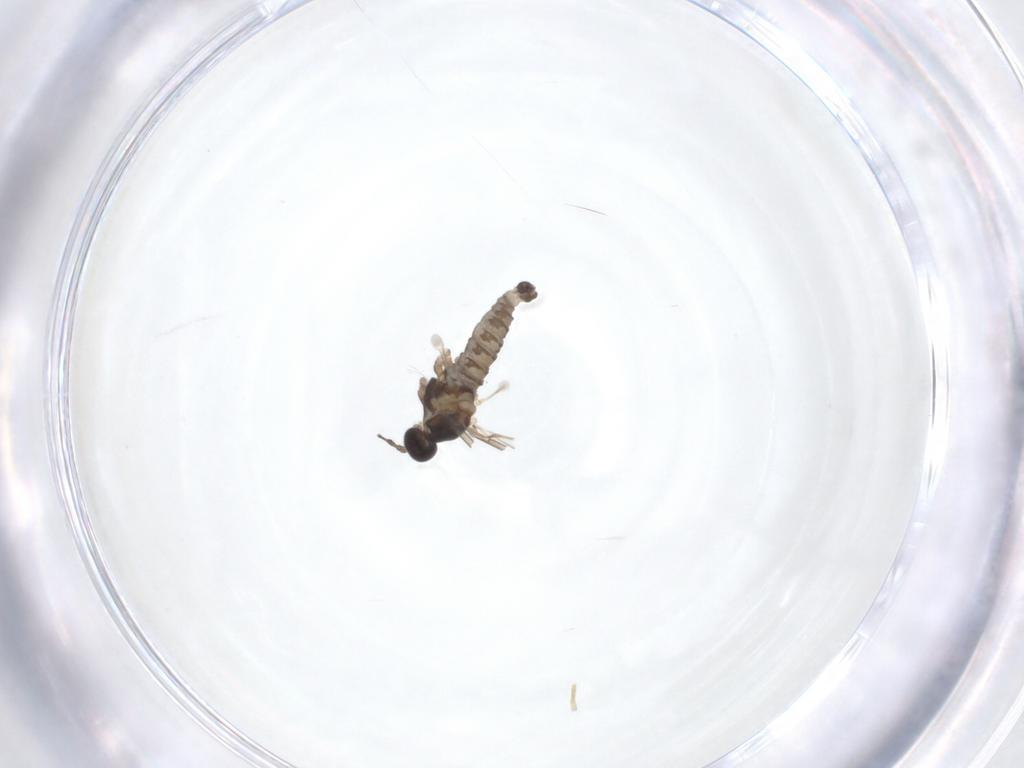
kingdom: Animalia
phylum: Arthropoda
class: Insecta
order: Diptera
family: Cecidomyiidae
